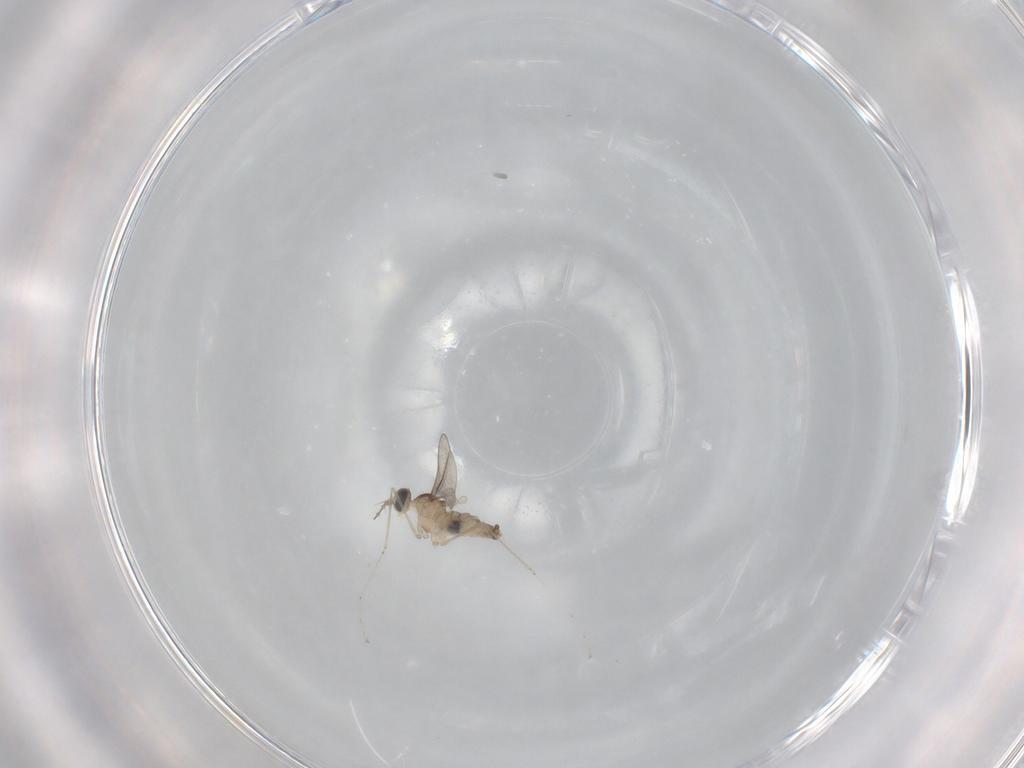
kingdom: Animalia
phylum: Arthropoda
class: Insecta
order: Diptera
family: Cecidomyiidae
